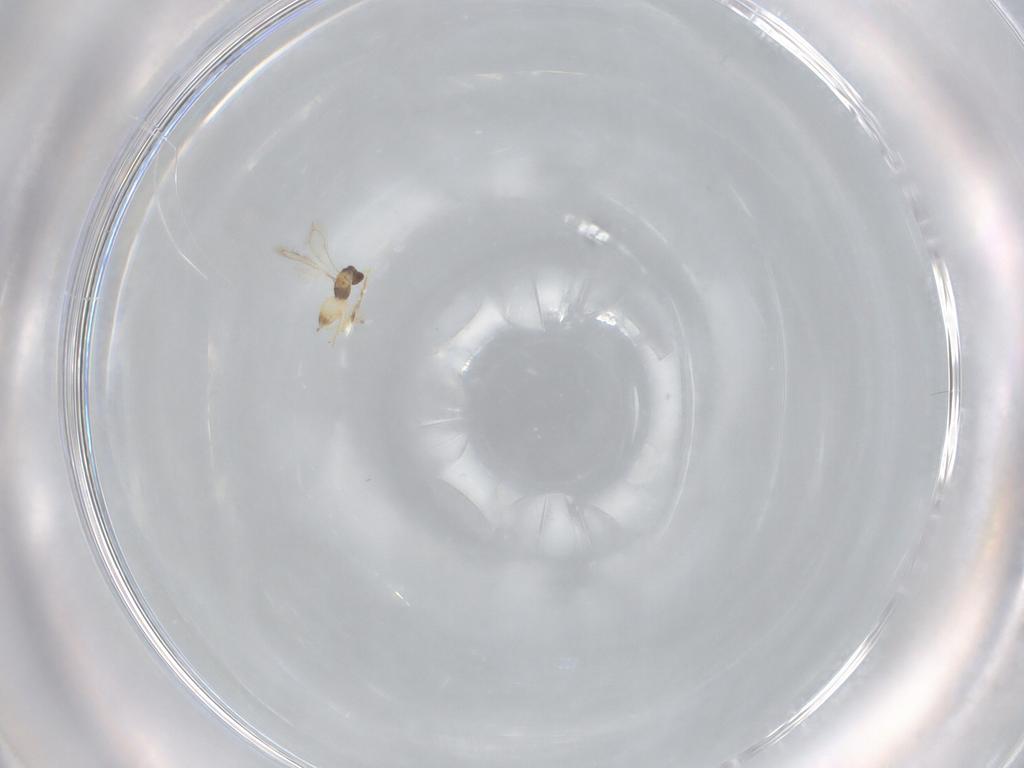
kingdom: Animalia
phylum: Arthropoda
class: Insecta
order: Hymenoptera
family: Mymaridae
